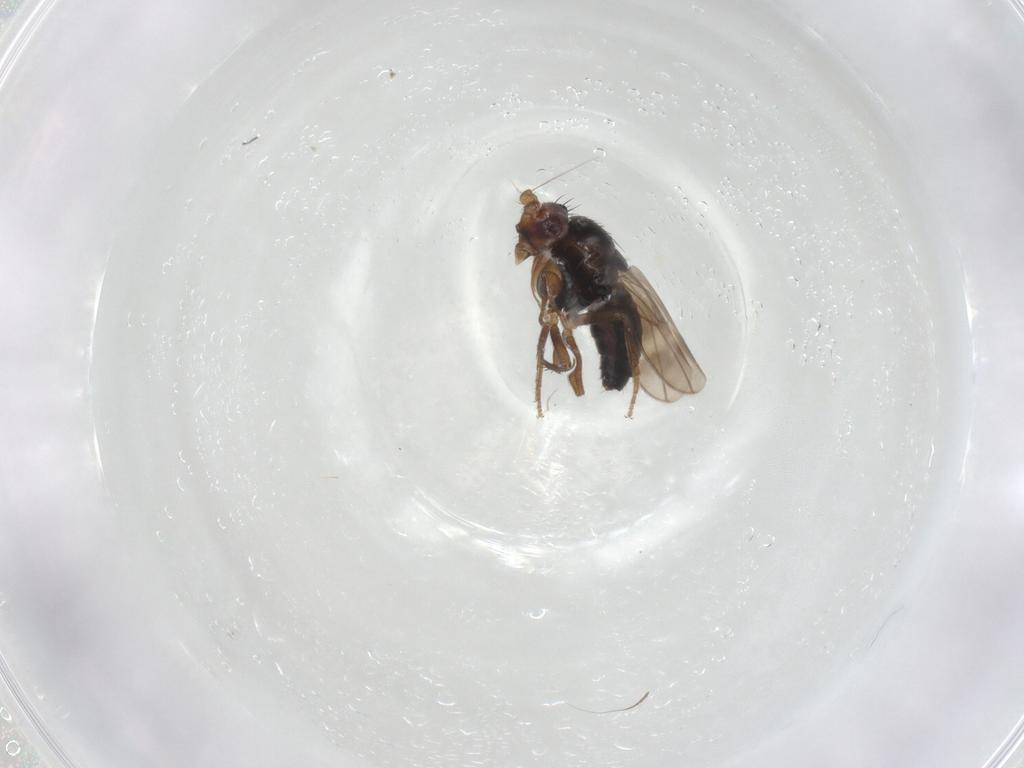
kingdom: Animalia
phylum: Arthropoda
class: Insecta
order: Diptera
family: Sphaeroceridae
